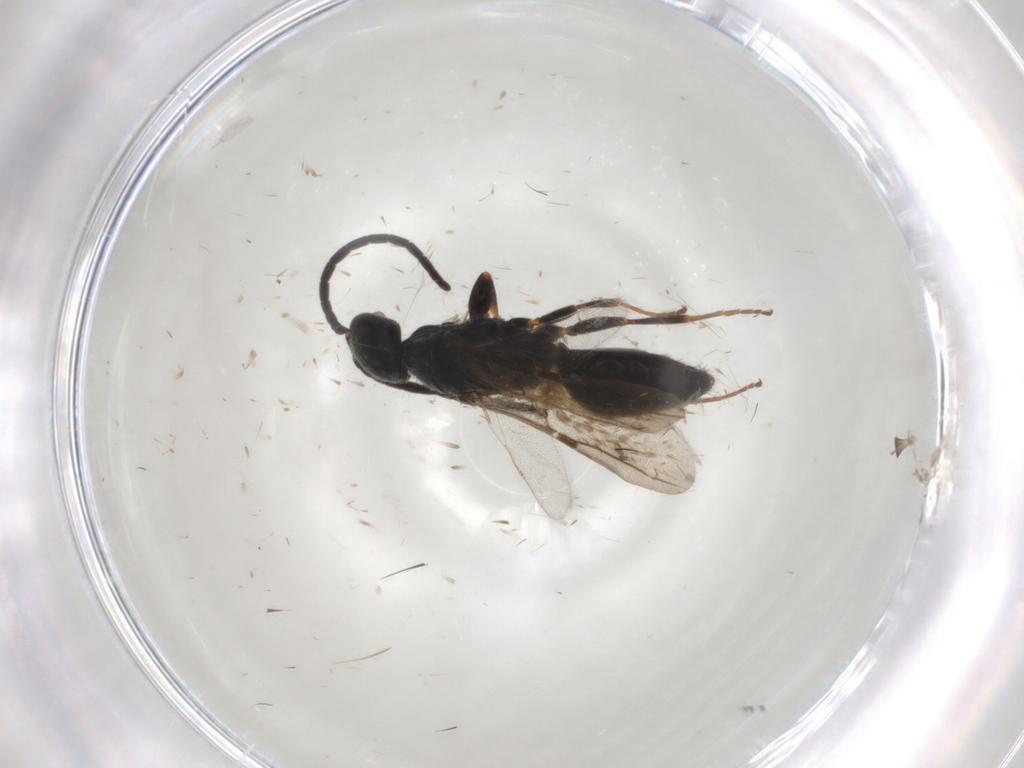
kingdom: Animalia
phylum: Arthropoda
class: Insecta
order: Hymenoptera
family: Bethylidae
